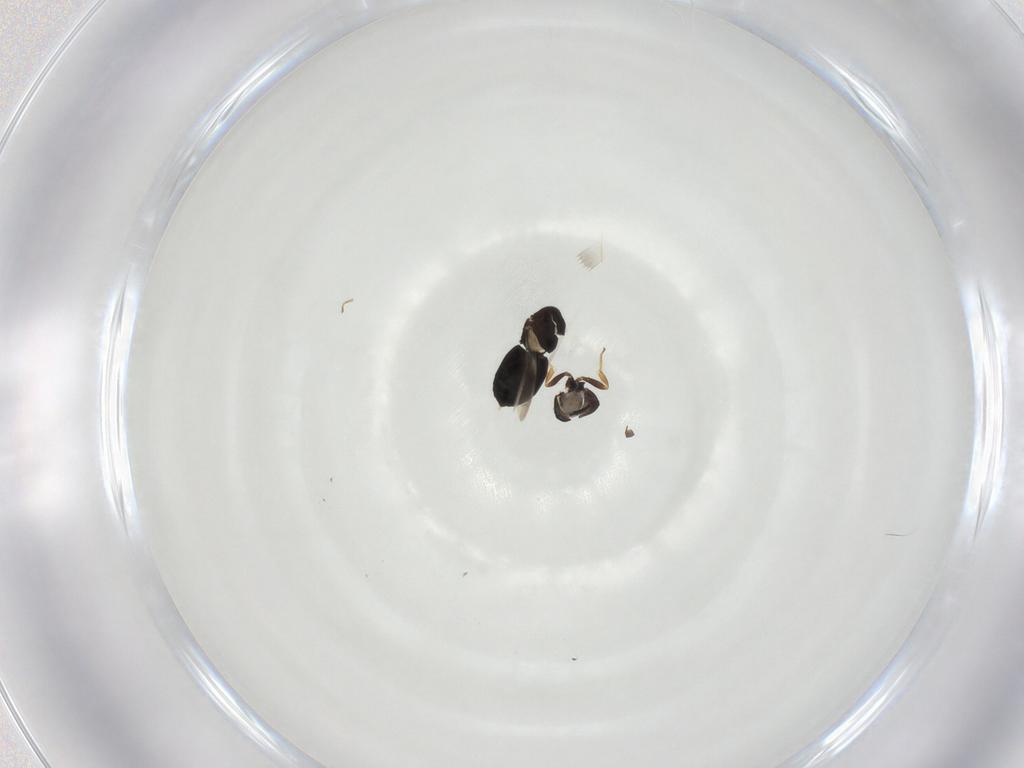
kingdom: Animalia
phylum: Arthropoda
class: Insecta
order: Hymenoptera
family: Scelionidae
